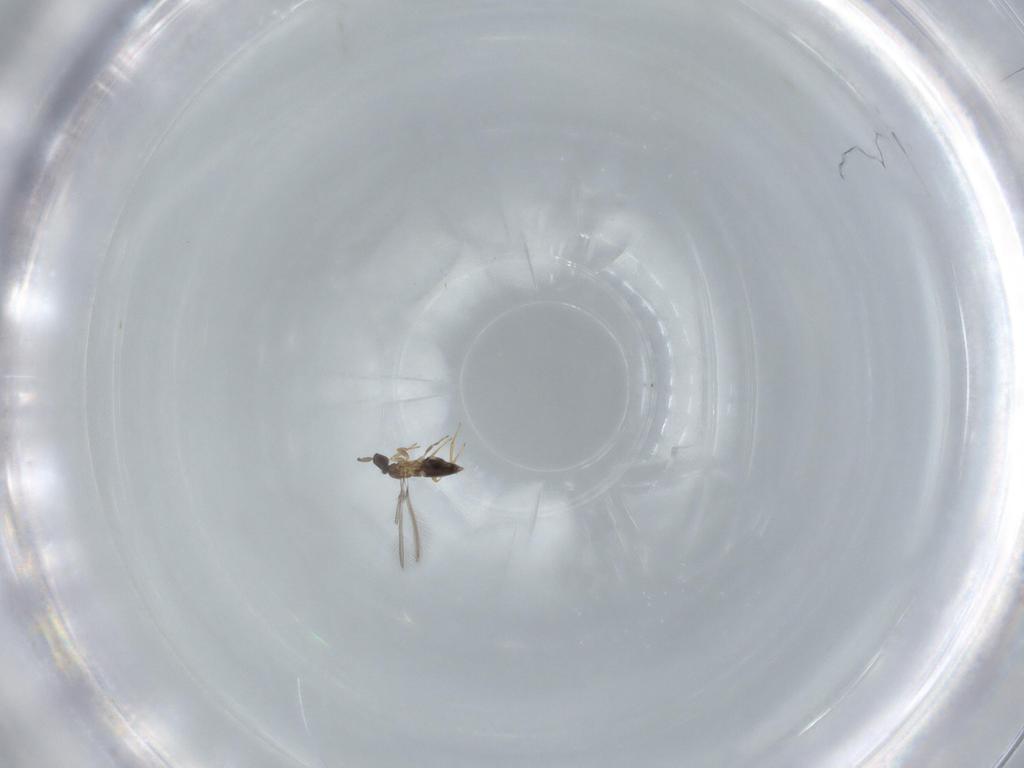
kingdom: Animalia
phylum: Arthropoda
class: Insecta
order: Hymenoptera
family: Mymaridae
